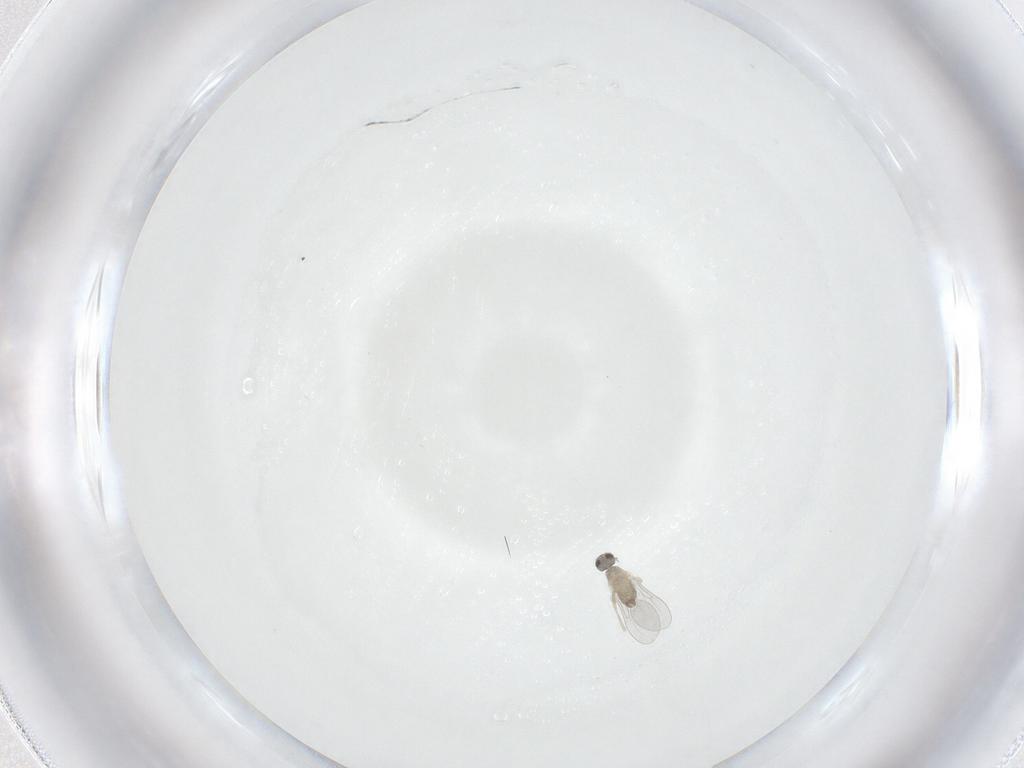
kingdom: Animalia
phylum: Arthropoda
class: Insecta
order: Diptera
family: Cecidomyiidae
